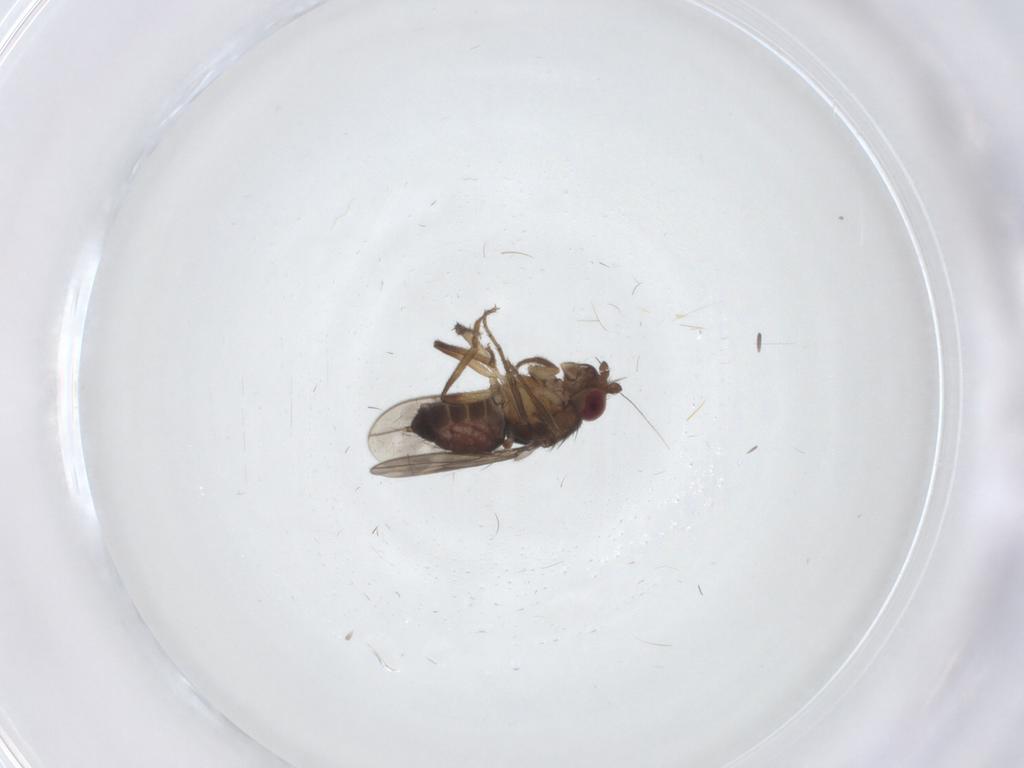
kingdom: Animalia
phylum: Arthropoda
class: Insecta
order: Diptera
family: Sphaeroceridae
